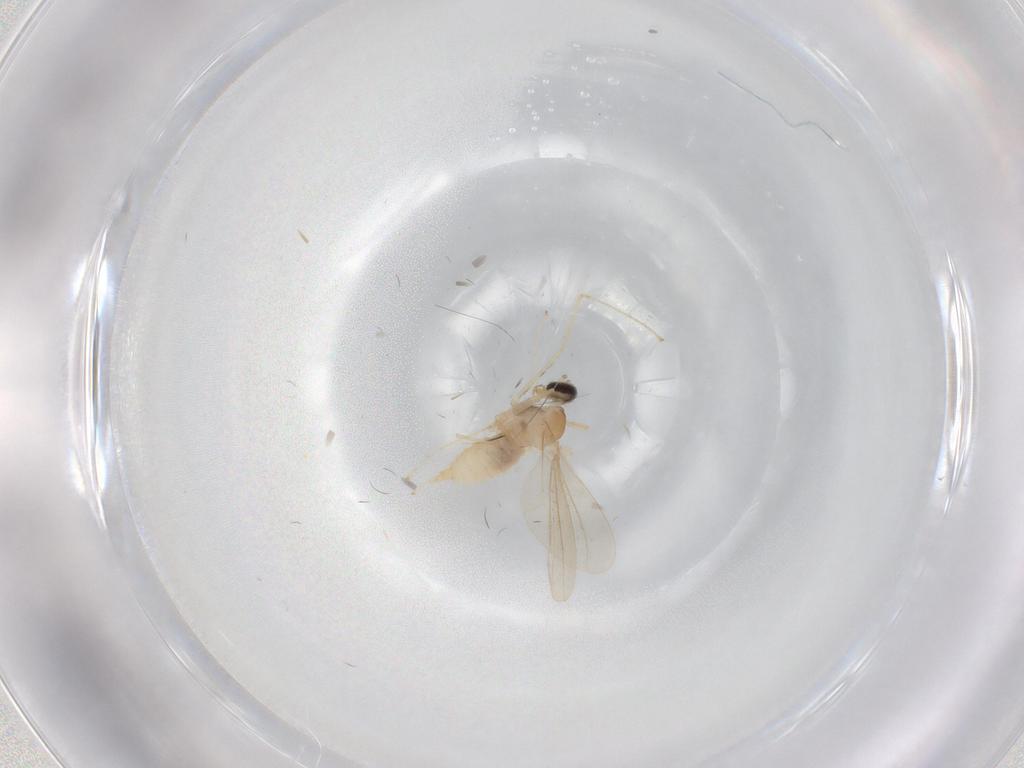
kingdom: Animalia
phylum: Arthropoda
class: Insecta
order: Diptera
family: Cecidomyiidae
